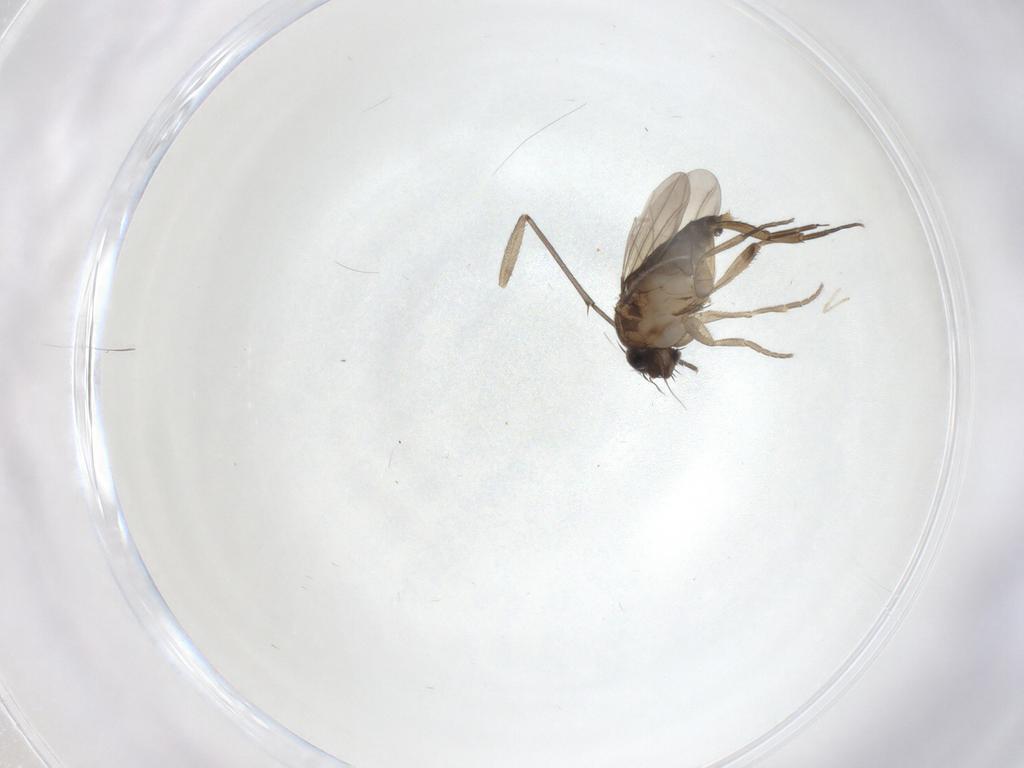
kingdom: Animalia
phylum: Arthropoda
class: Insecta
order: Diptera
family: Phoridae
